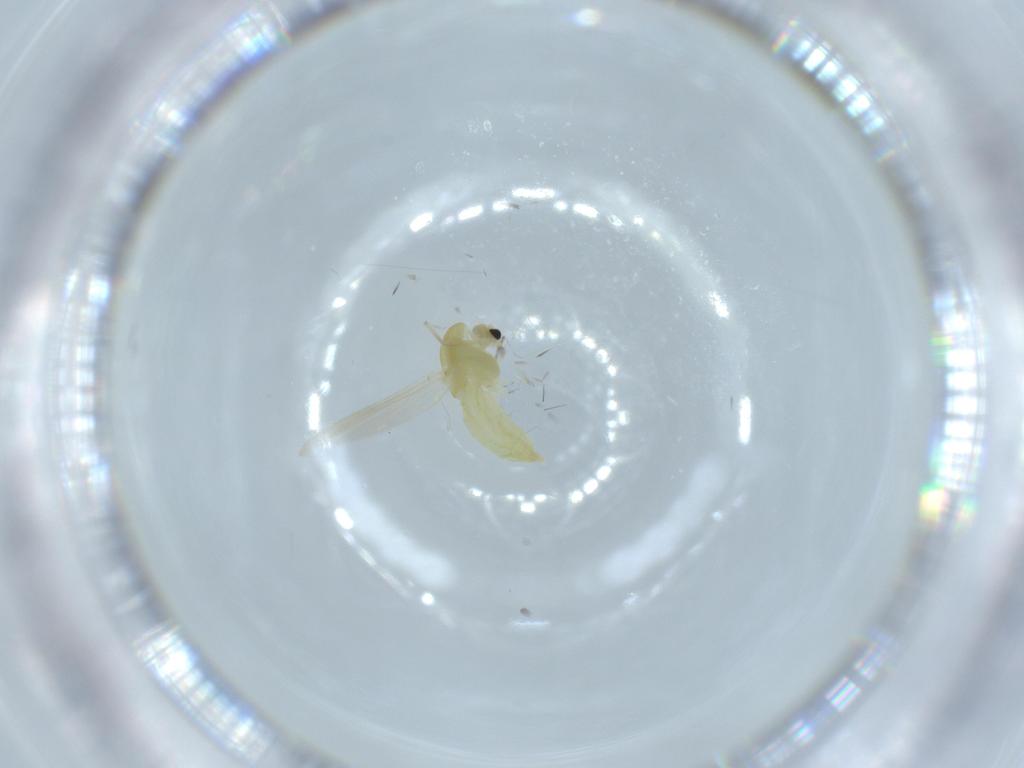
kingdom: Animalia
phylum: Arthropoda
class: Insecta
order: Diptera
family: Chironomidae
